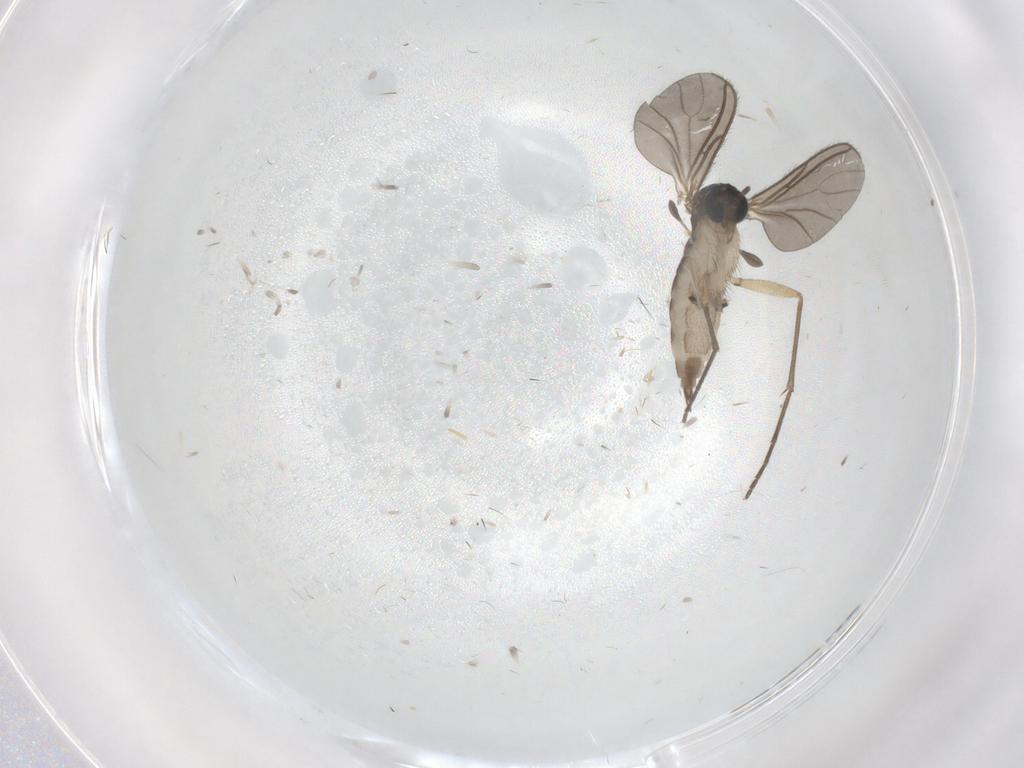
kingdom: Animalia
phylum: Arthropoda
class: Insecta
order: Diptera
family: Sciaridae
